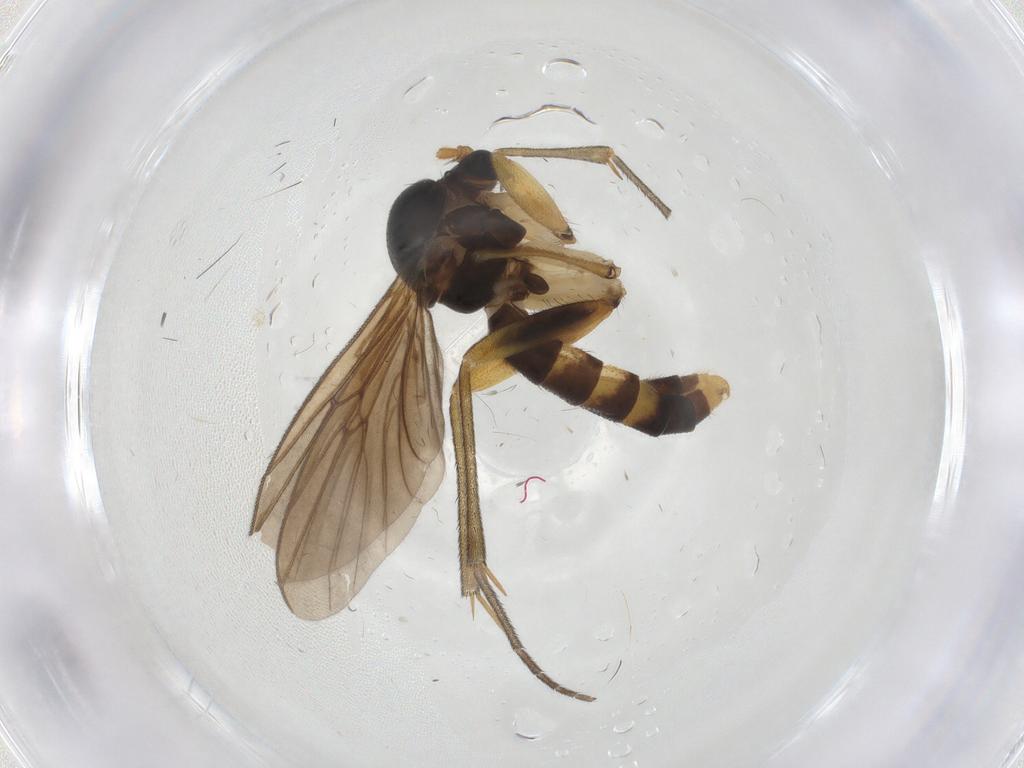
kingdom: Animalia
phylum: Arthropoda
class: Insecta
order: Diptera
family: Mycetophilidae
